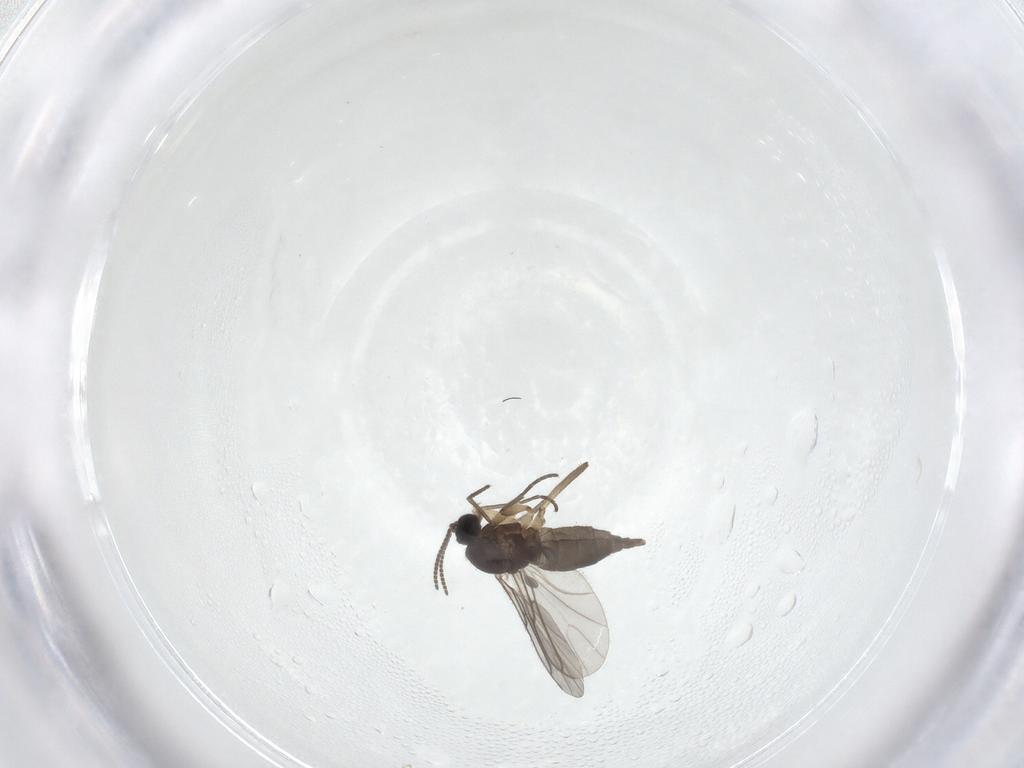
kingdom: Animalia
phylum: Arthropoda
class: Insecta
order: Diptera
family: Sciaridae
